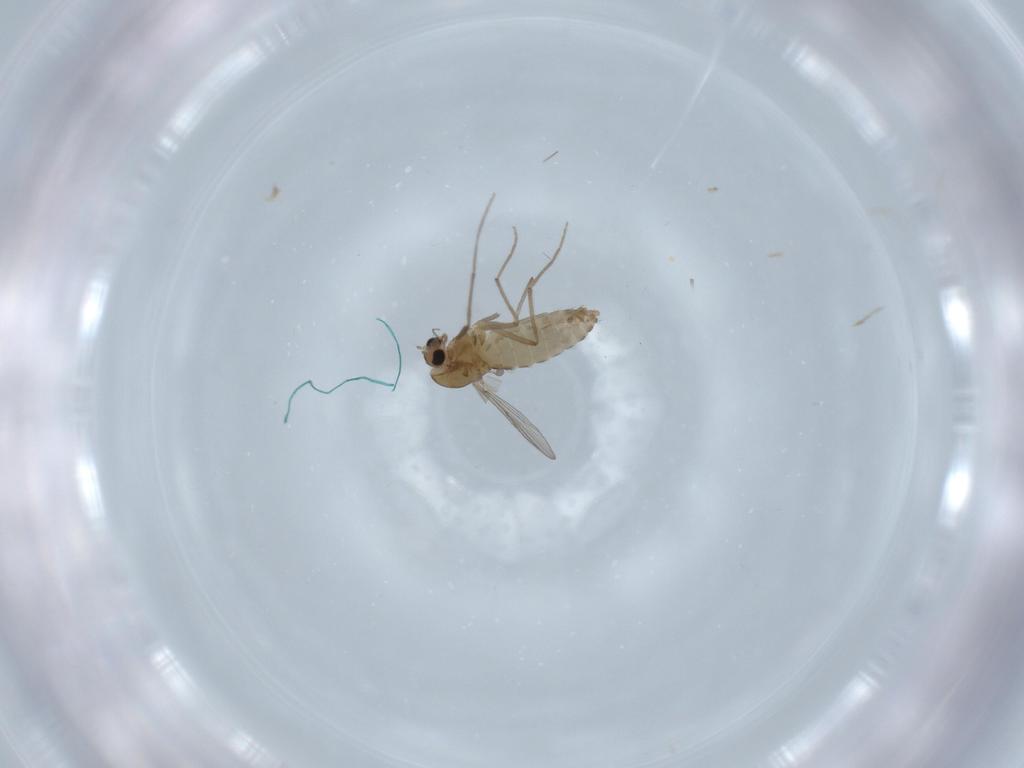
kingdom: Animalia
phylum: Arthropoda
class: Insecta
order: Diptera
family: Chironomidae
